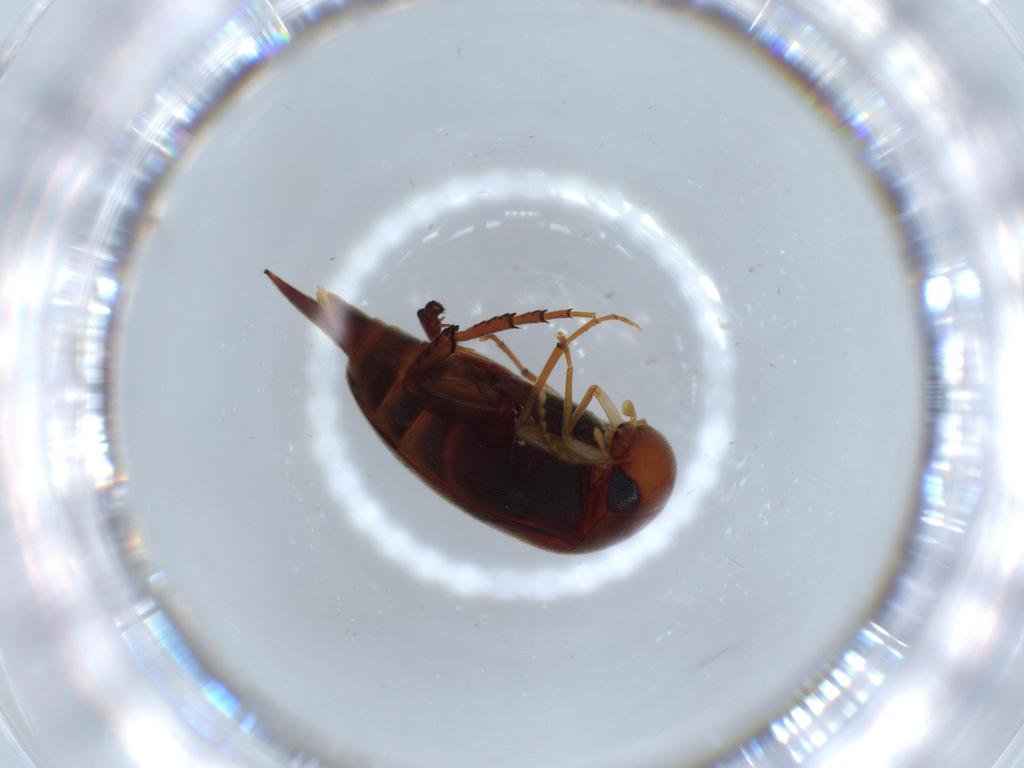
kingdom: Animalia
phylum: Arthropoda
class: Insecta
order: Coleoptera
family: Chrysomelidae
